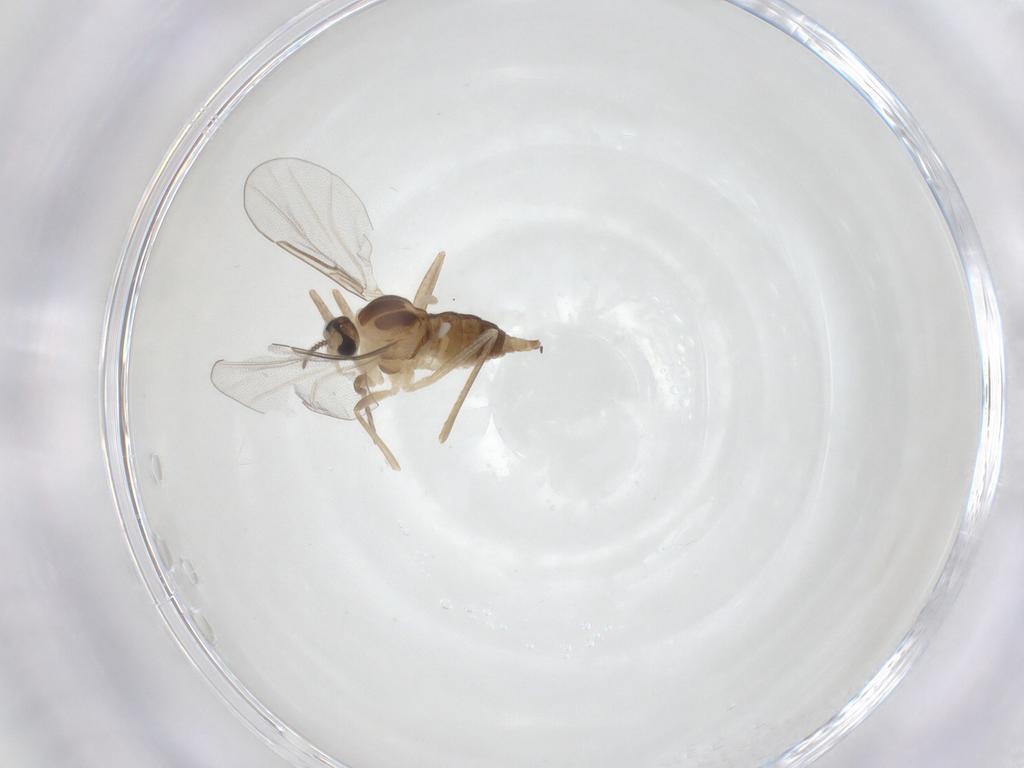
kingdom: Animalia
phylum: Arthropoda
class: Insecta
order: Diptera
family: Cecidomyiidae
